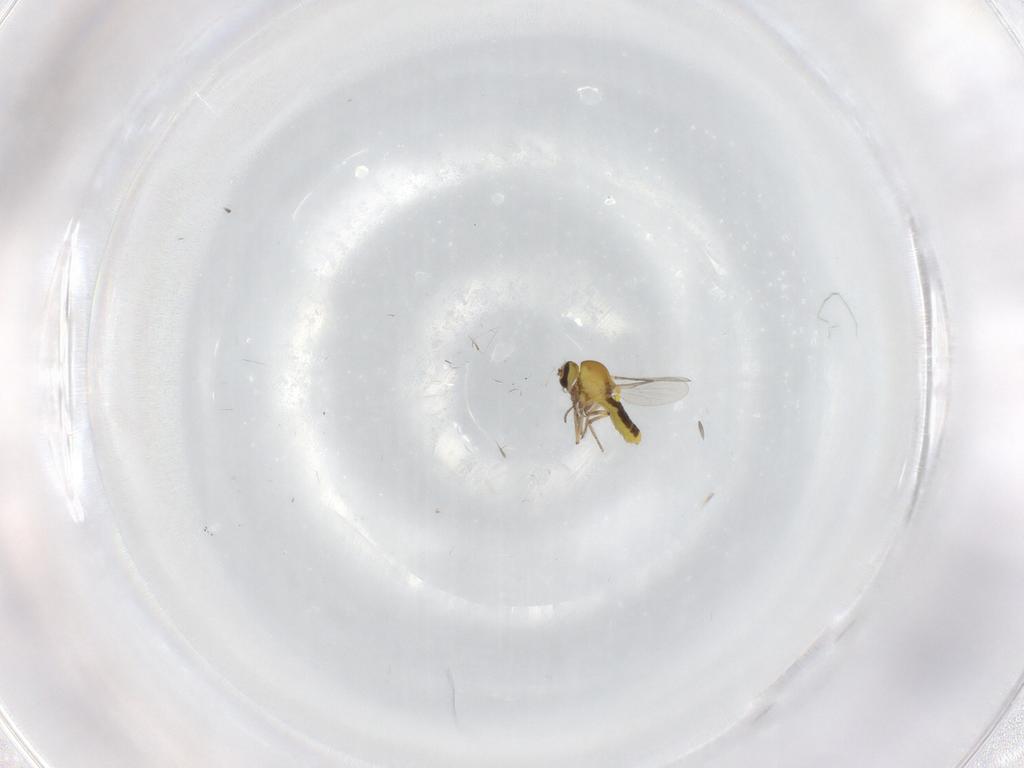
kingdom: Animalia
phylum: Arthropoda
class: Insecta
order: Diptera
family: Ceratopogonidae
